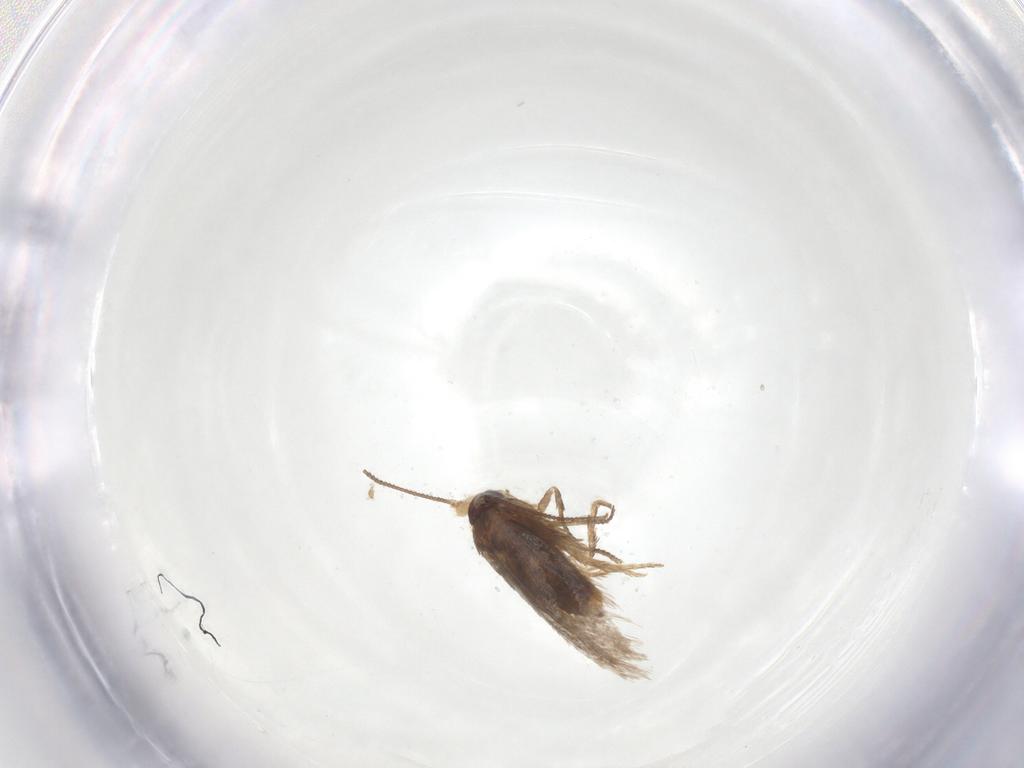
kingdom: Animalia
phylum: Arthropoda
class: Insecta
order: Lepidoptera
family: Nepticulidae
